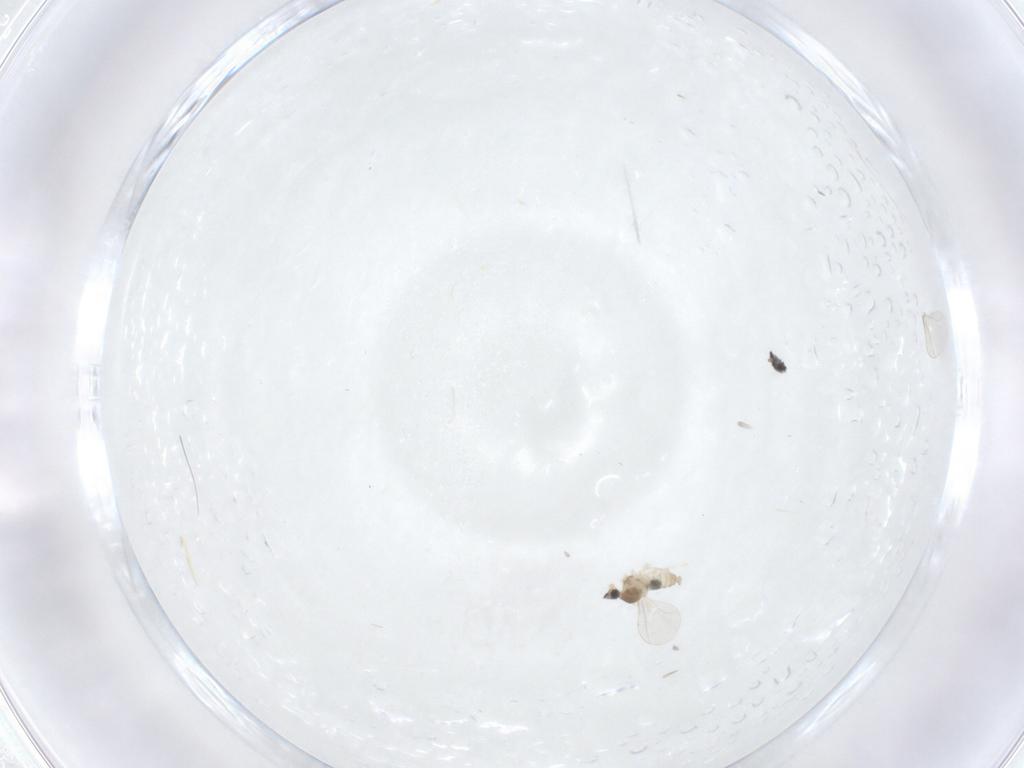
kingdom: Animalia
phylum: Arthropoda
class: Insecta
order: Diptera
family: Cecidomyiidae
